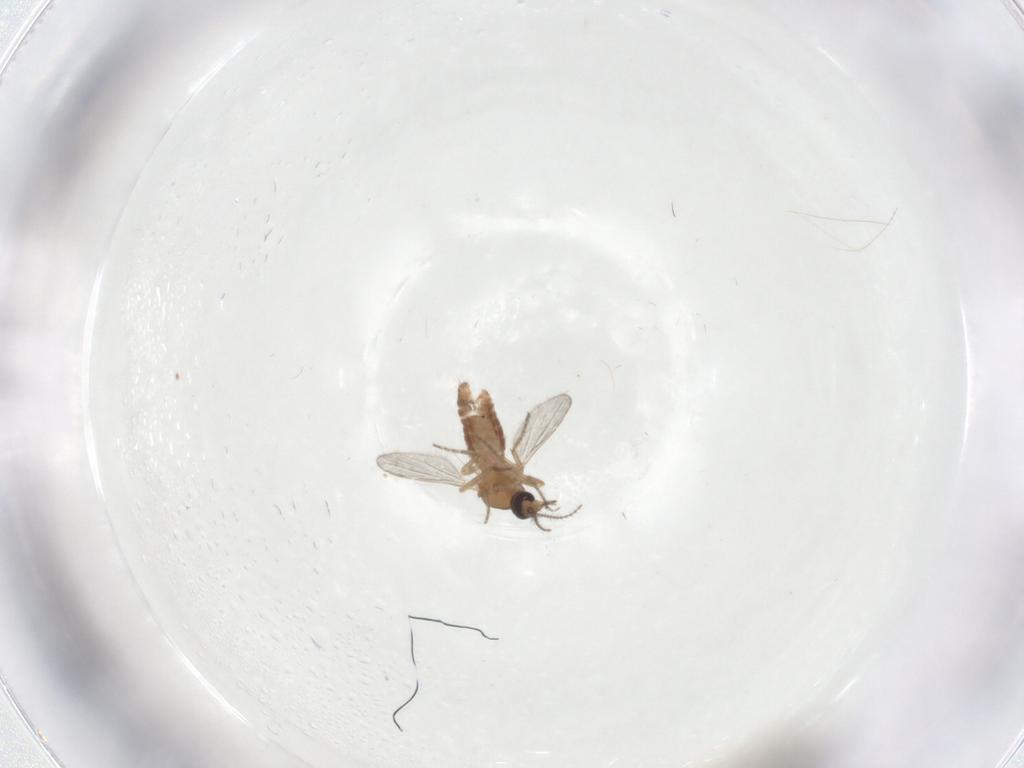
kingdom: Animalia
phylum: Arthropoda
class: Insecta
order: Diptera
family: Ceratopogonidae
